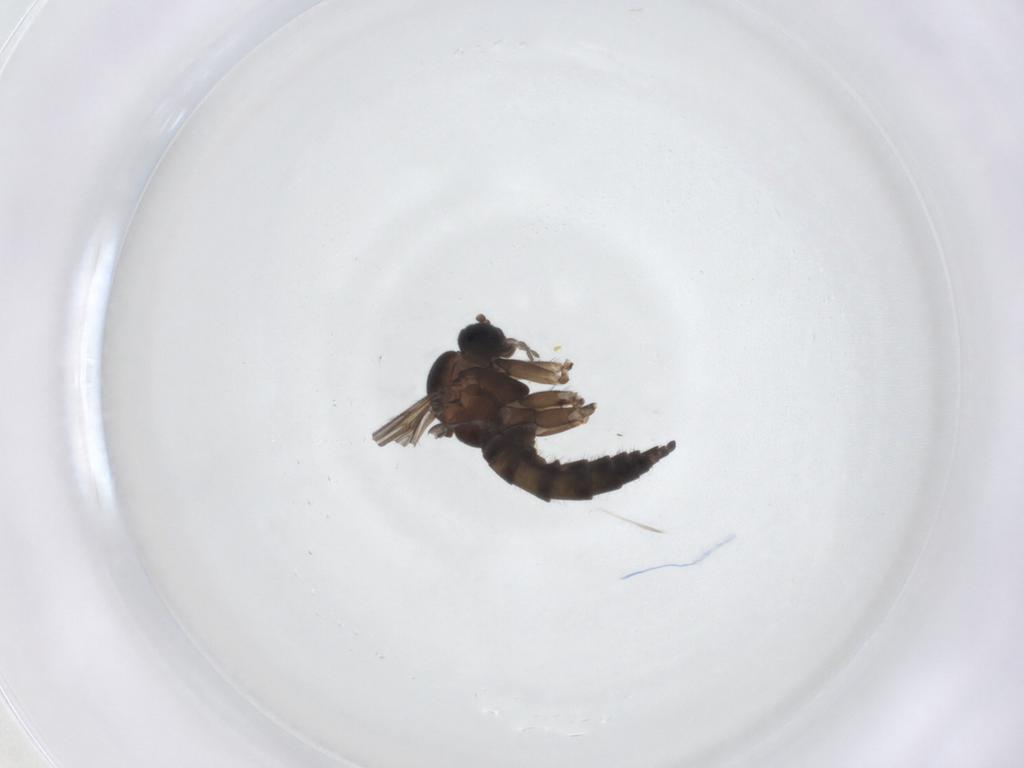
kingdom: Animalia
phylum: Arthropoda
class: Insecta
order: Diptera
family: Sciaridae
